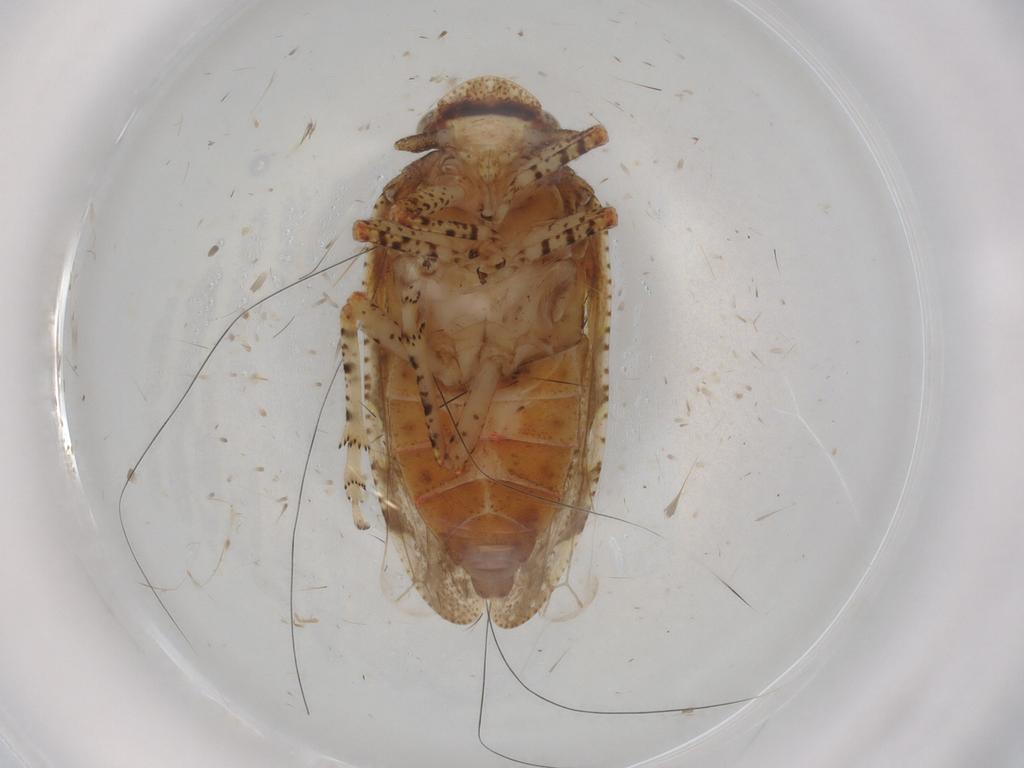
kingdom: Animalia
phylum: Arthropoda
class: Insecta
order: Hemiptera
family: Tettigometridae
